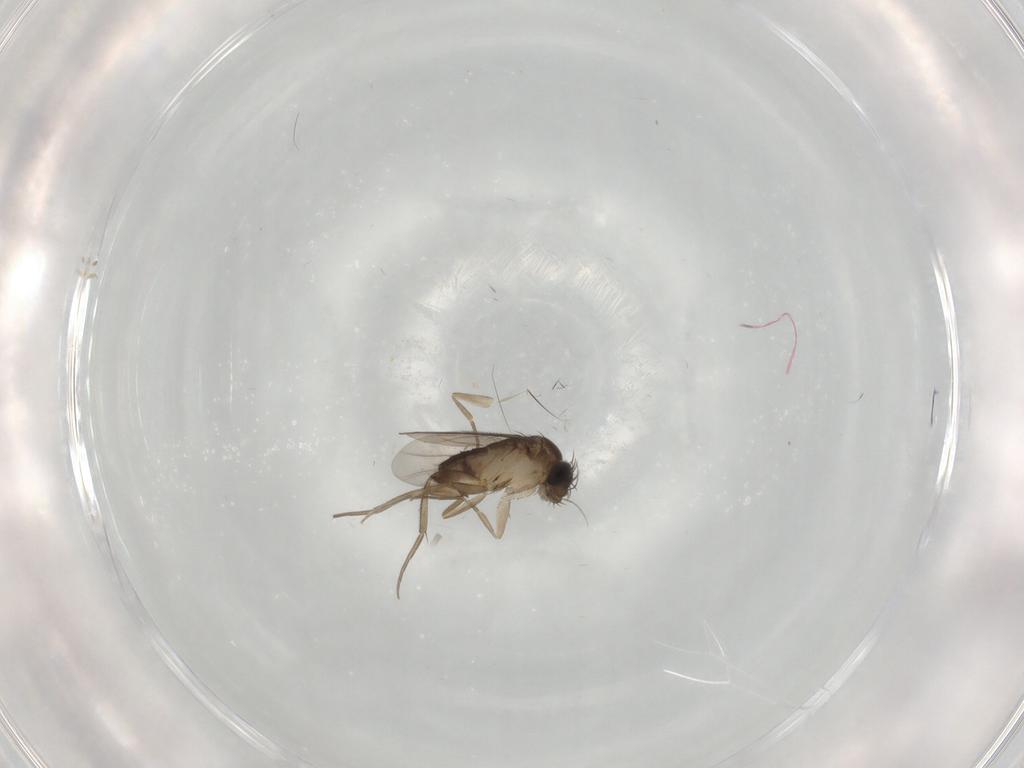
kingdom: Animalia
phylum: Arthropoda
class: Insecta
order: Diptera
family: Phoridae
